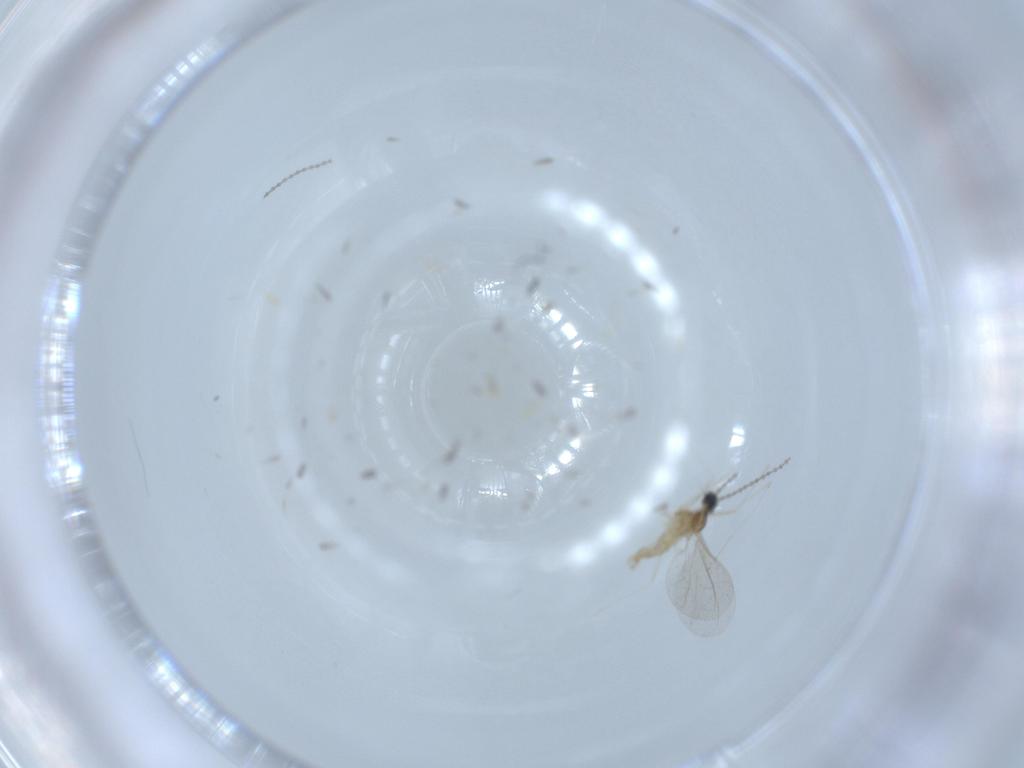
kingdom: Animalia
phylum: Arthropoda
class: Insecta
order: Diptera
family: Cecidomyiidae
